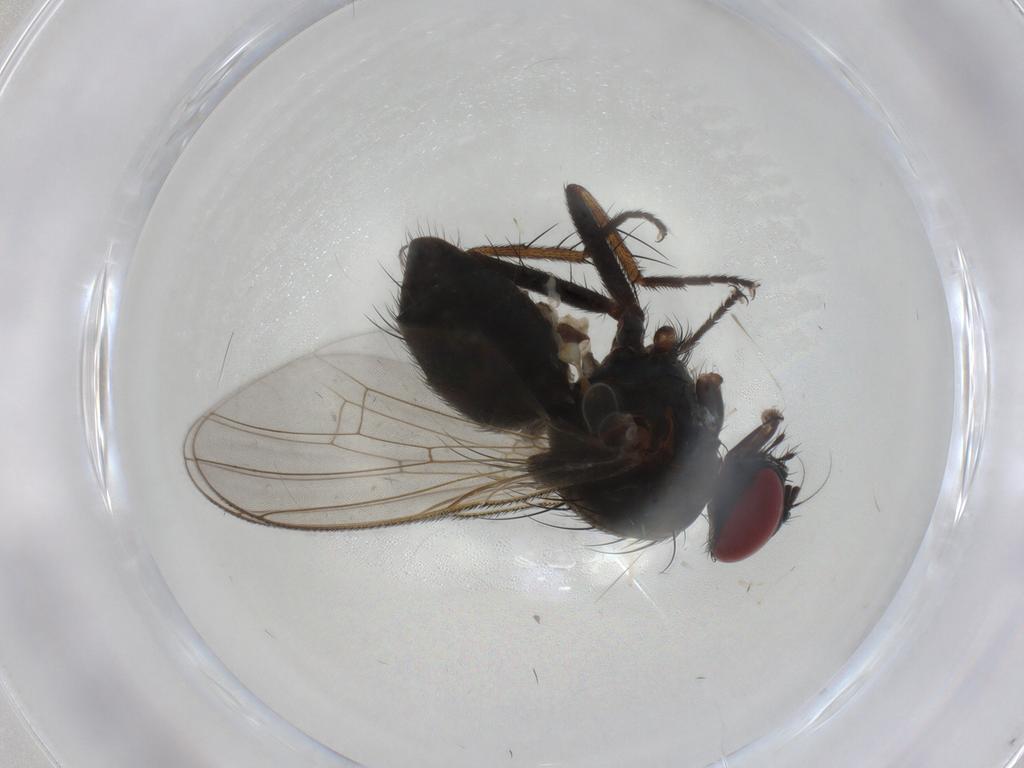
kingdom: Animalia
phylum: Arthropoda
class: Insecta
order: Diptera
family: Cecidomyiidae
